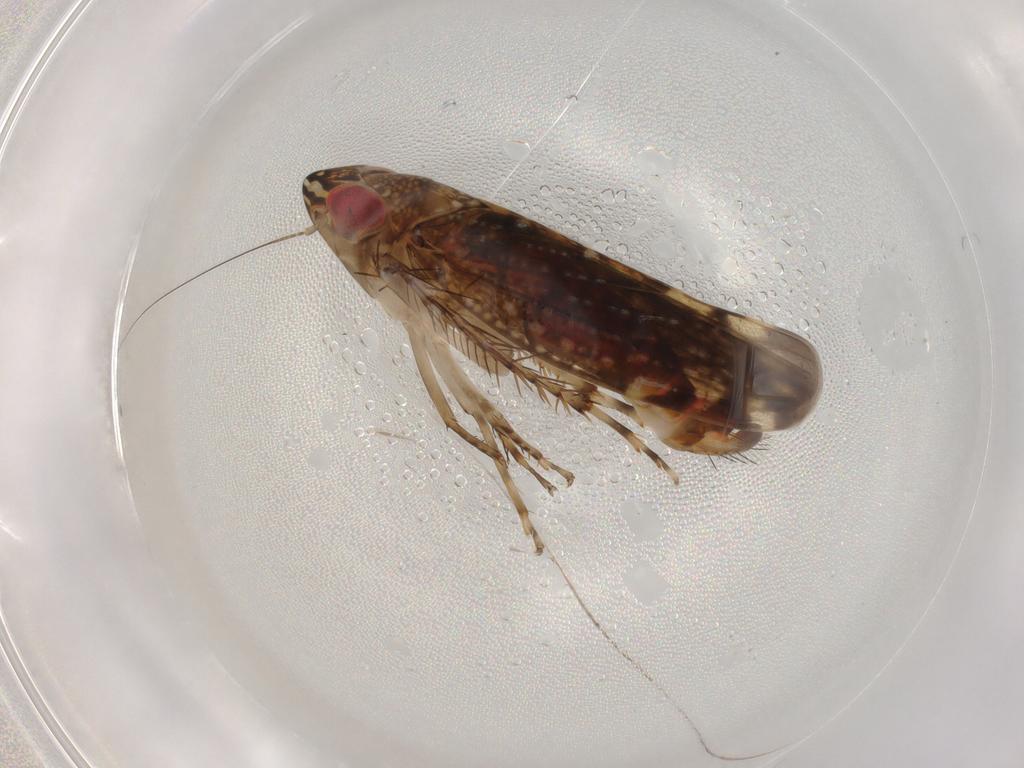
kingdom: Animalia
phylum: Arthropoda
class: Insecta
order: Hemiptera
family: Cicadellidae
